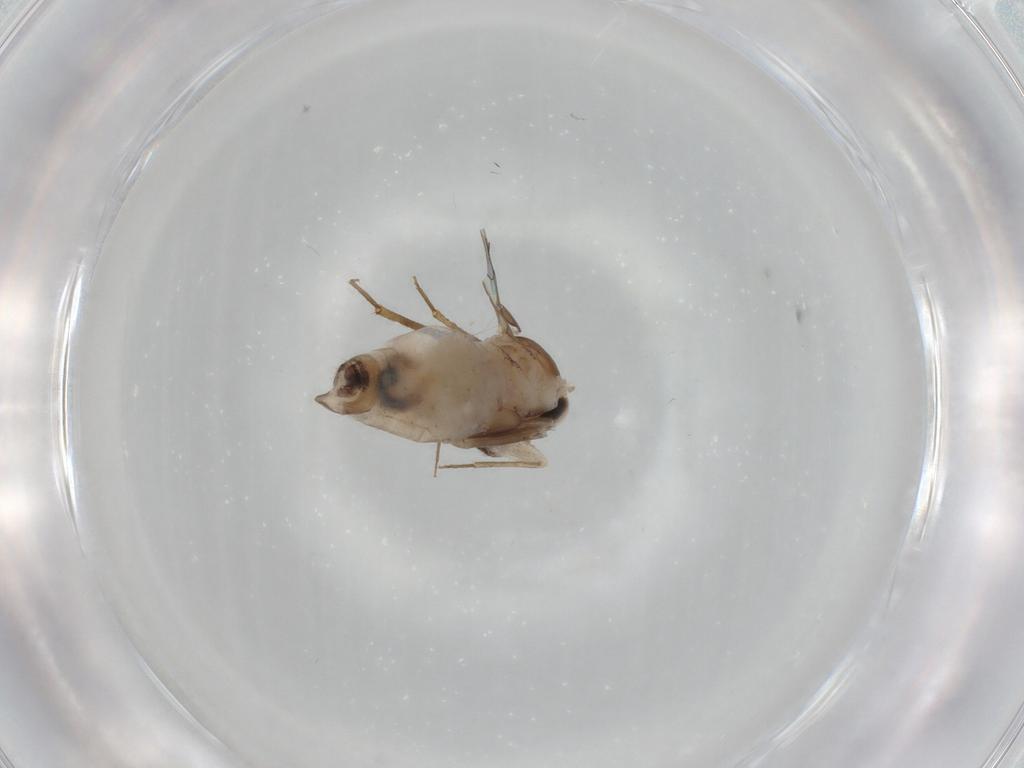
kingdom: Animalia
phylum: Arthropoda
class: Insecta
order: Psocodea
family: Lepidopsocidae
